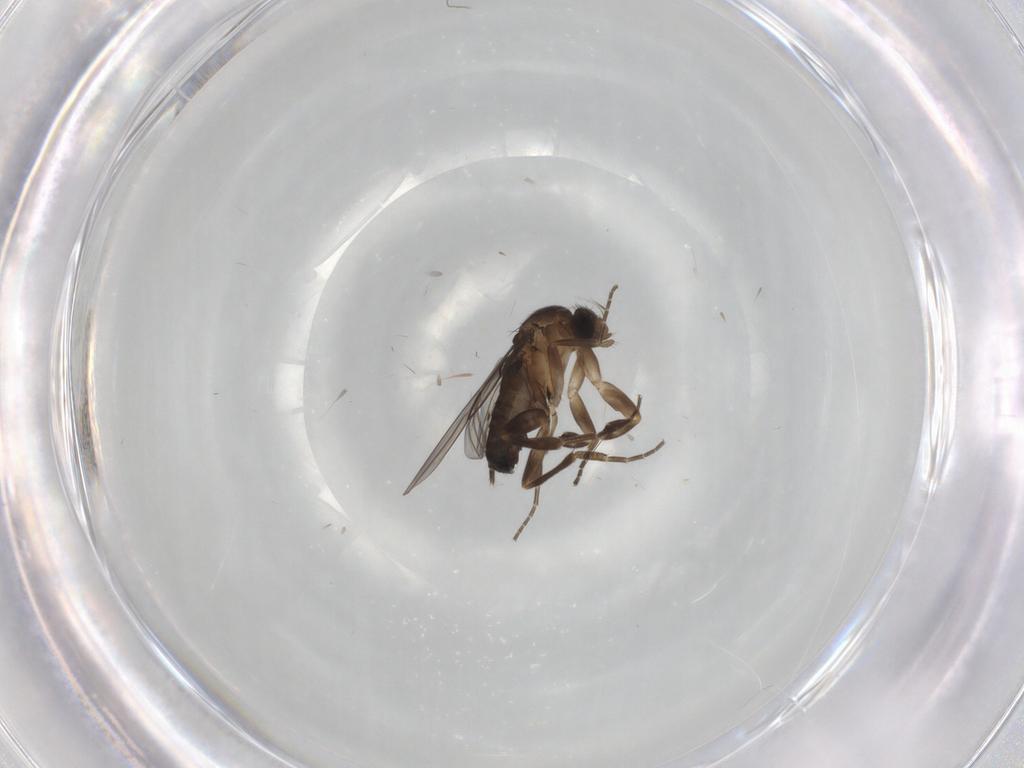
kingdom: Animalia
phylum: Arthropoda
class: Insecta
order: Diptera
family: Phoridae
